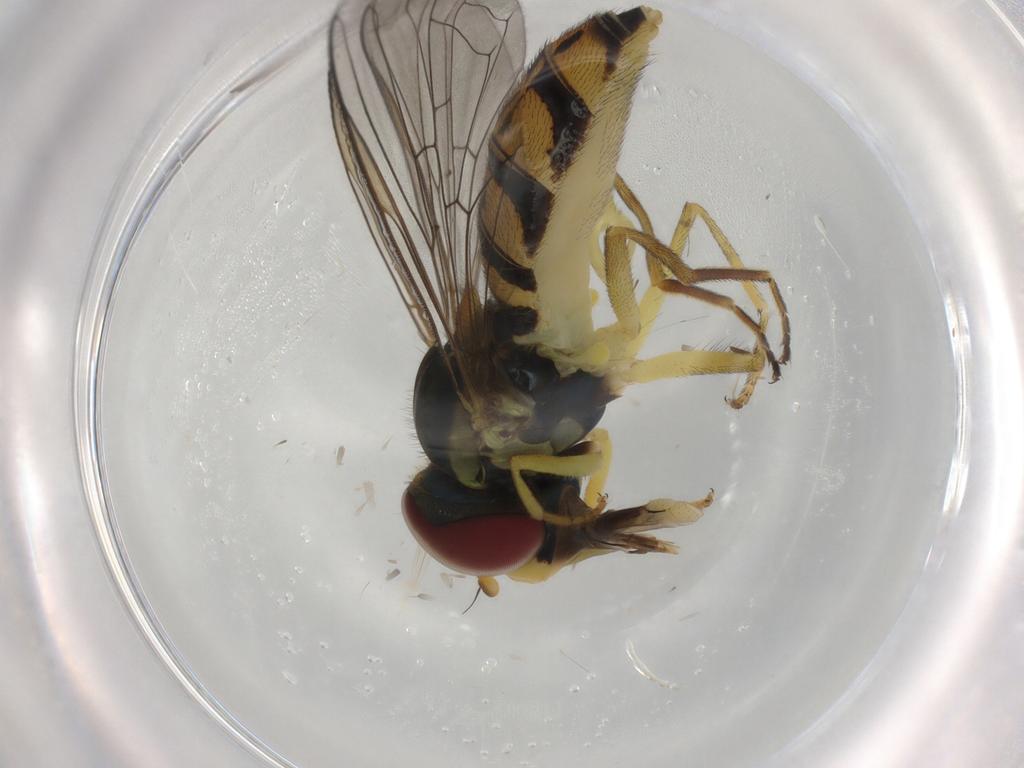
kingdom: Animalia
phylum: Arthropoda
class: Insecta
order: Diptera
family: Syrphidae
